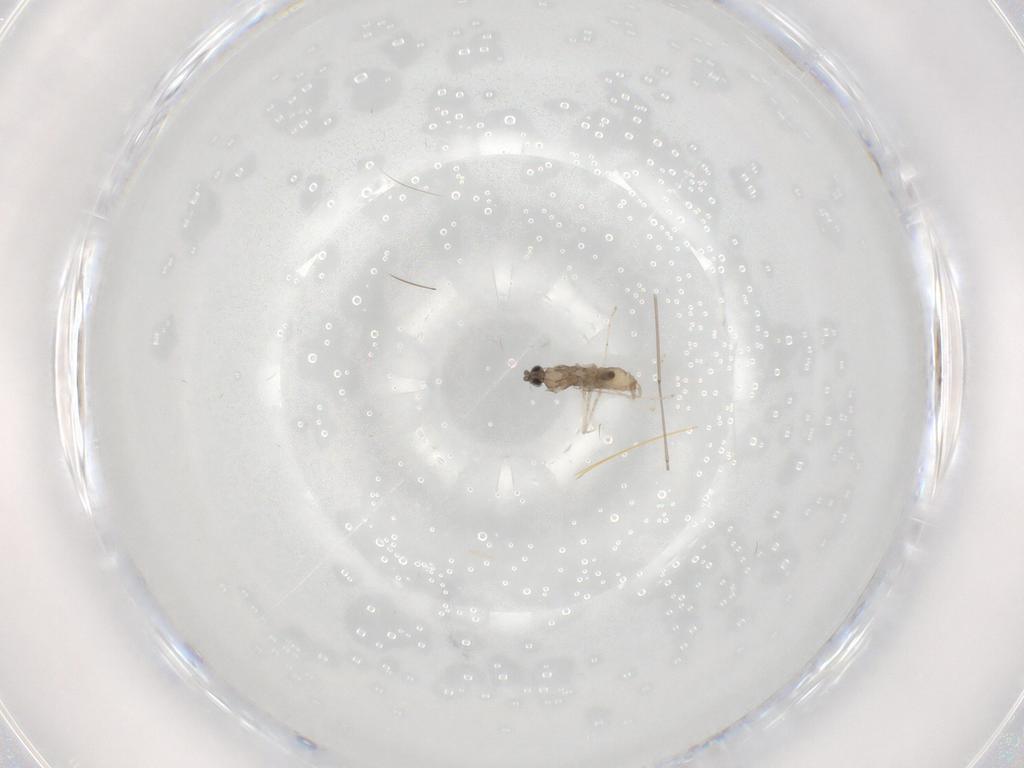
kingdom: Animalia
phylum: Arthropoda
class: Insecta
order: Diptera
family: Cecidomyiidae
